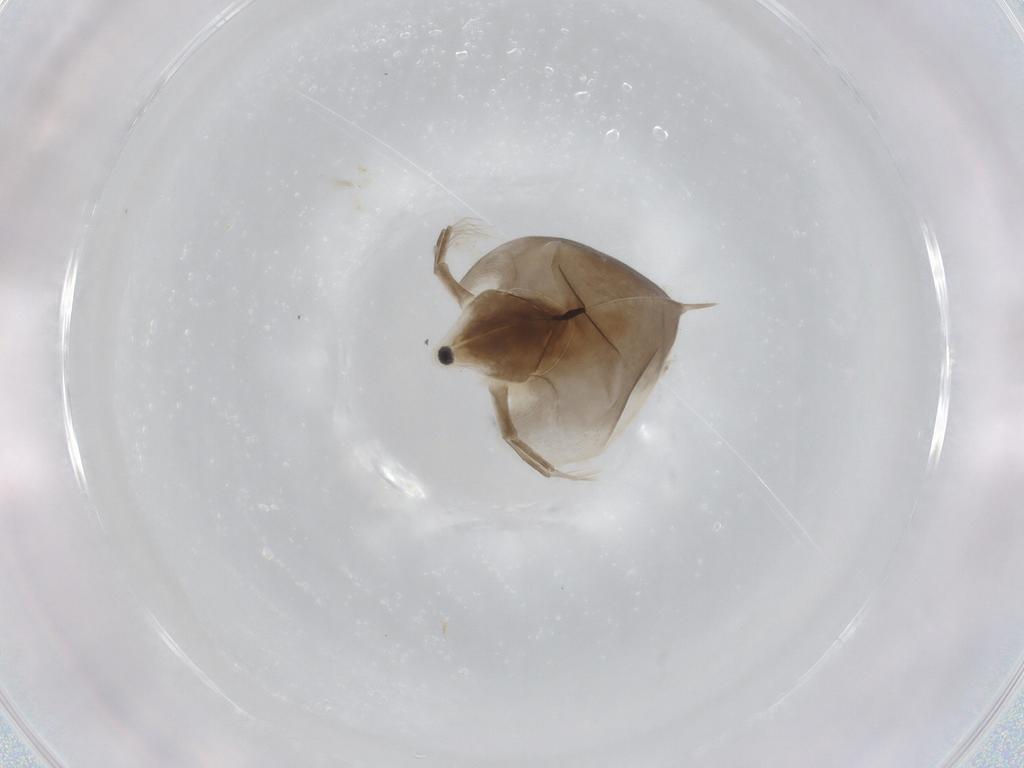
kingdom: Animalia
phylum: Arthropoda
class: Branchiopoda
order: Diplostraca
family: Daphniidae
